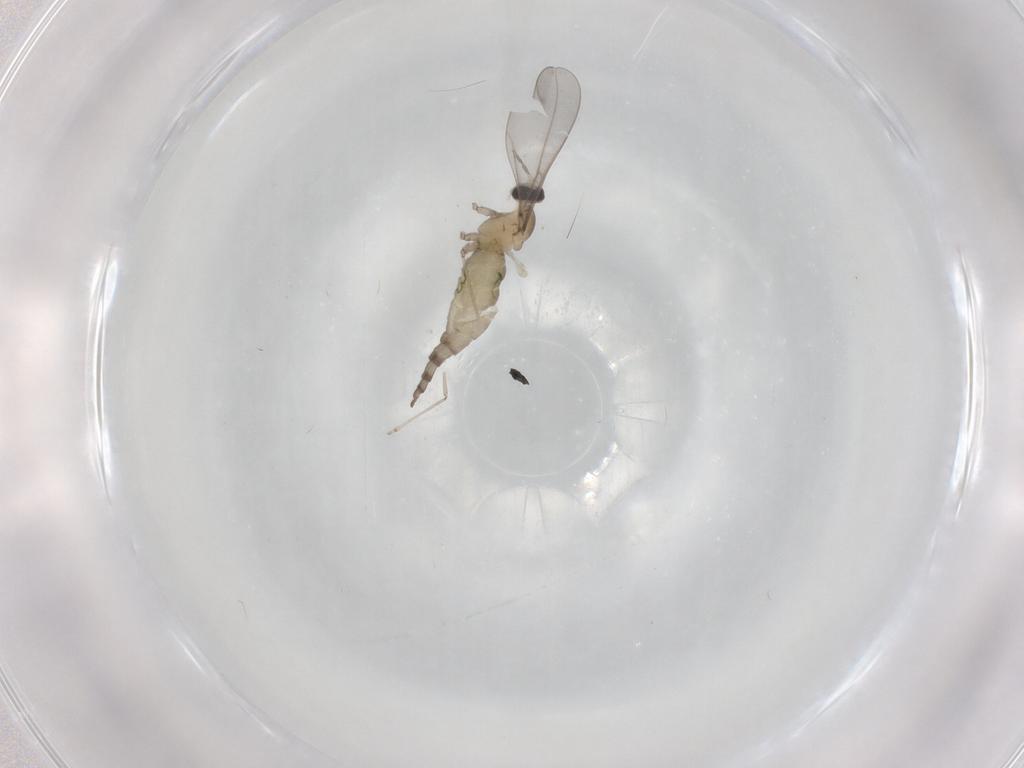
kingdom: Animalia
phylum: Arthropoda
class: Insecta
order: Diptera
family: Cecidomyiidae
